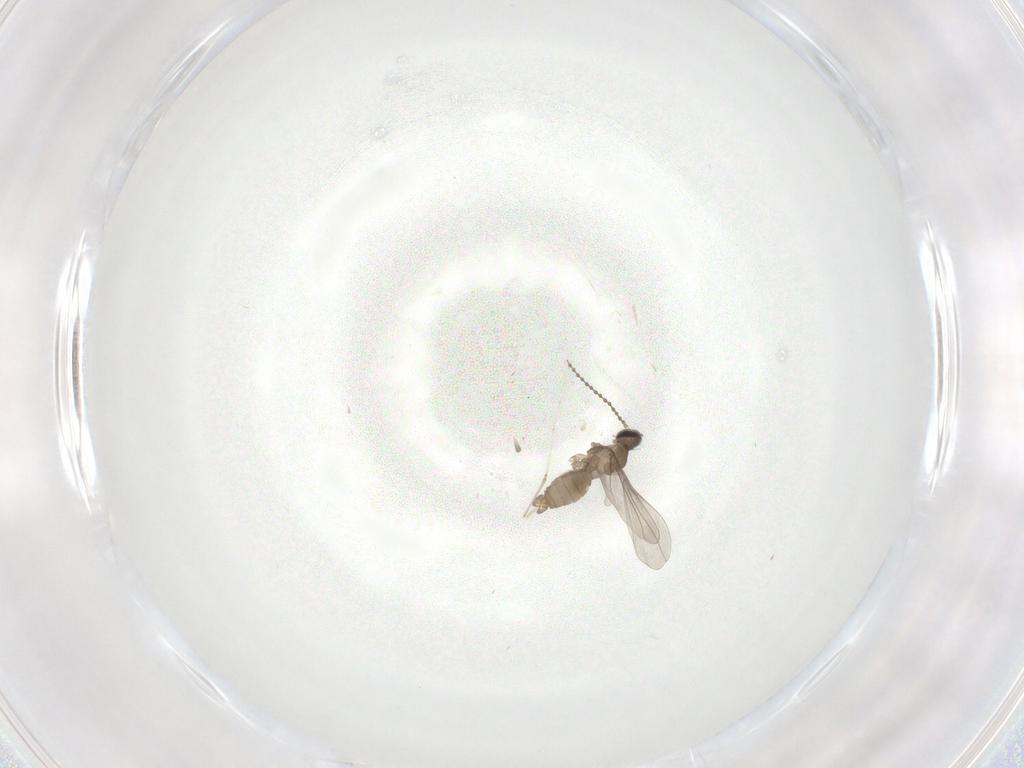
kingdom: Animalia
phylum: Arthropoda
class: Insecta
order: Diptera
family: Cecidomyiidae
